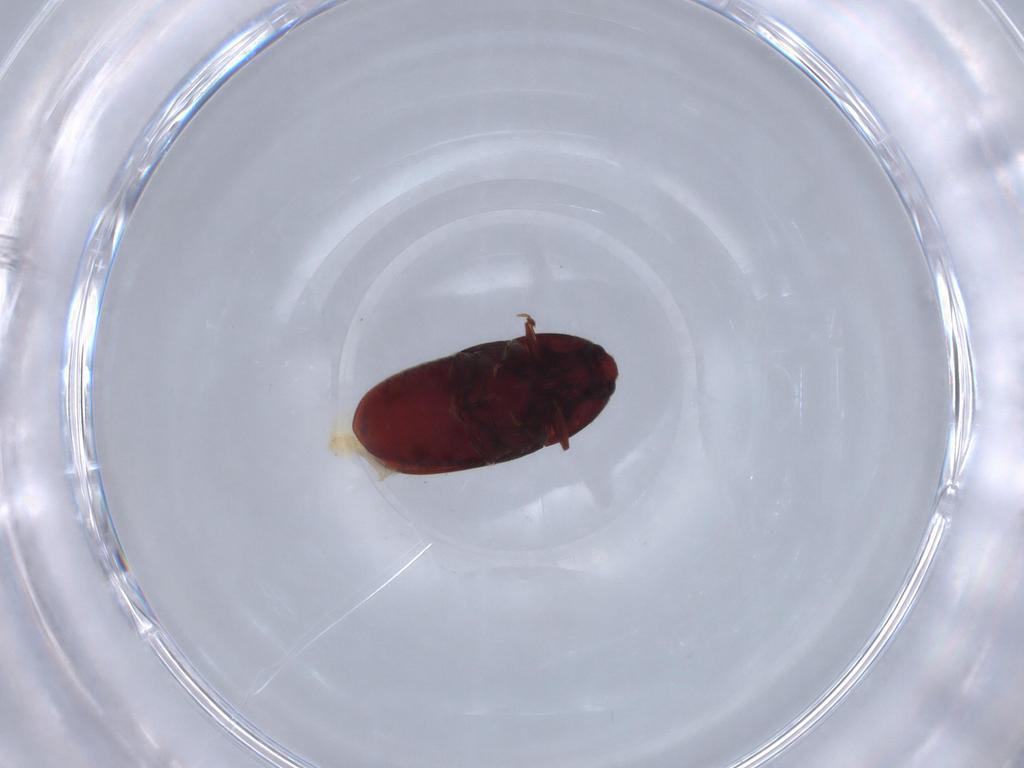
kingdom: Animalia
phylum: Arthropoda
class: Insecta
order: Coleoptera
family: Throscidae
